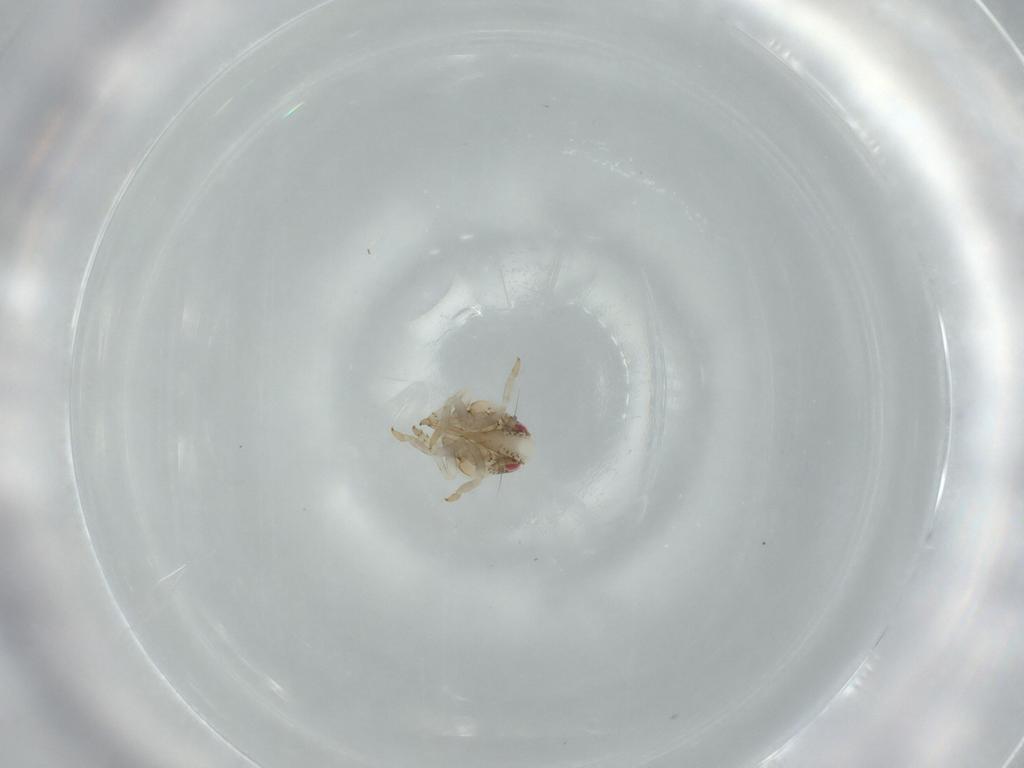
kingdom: Animalia
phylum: Arthropoda
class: Insecta
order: Hemiptera
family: Acanaloniidae
